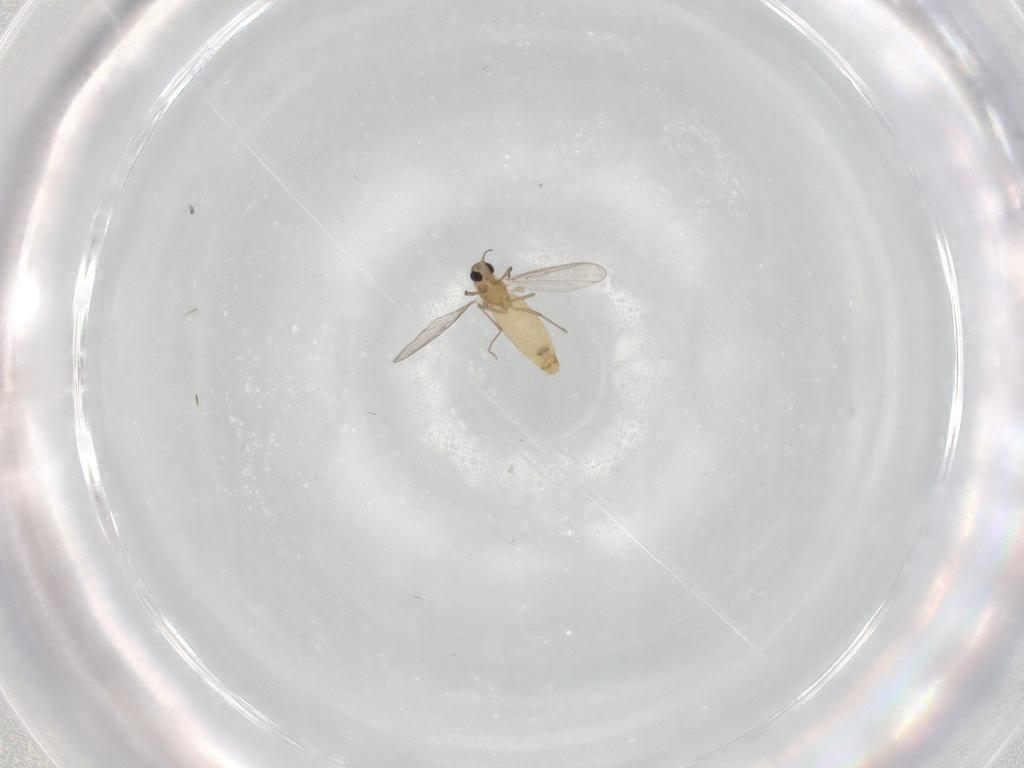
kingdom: Animalia
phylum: Arthropoda
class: Insecta
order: Diptera
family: Chironomidae
